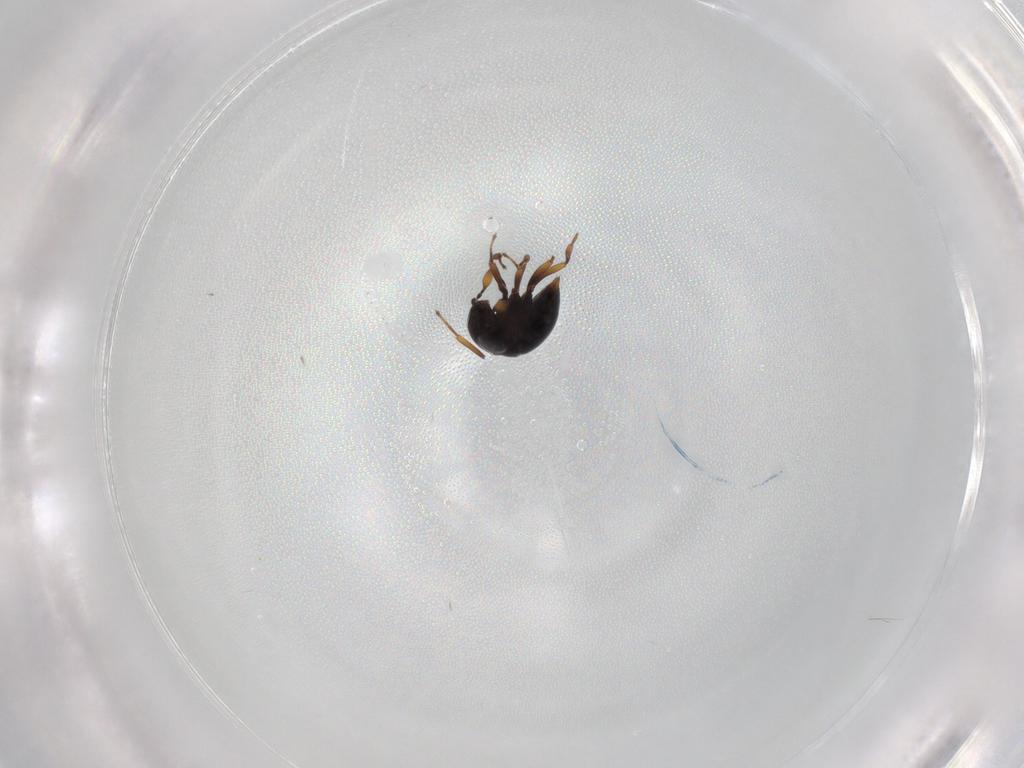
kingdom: Animalia
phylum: Arthropoda
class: Insecta
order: Hymenoptera
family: Scelionidae
